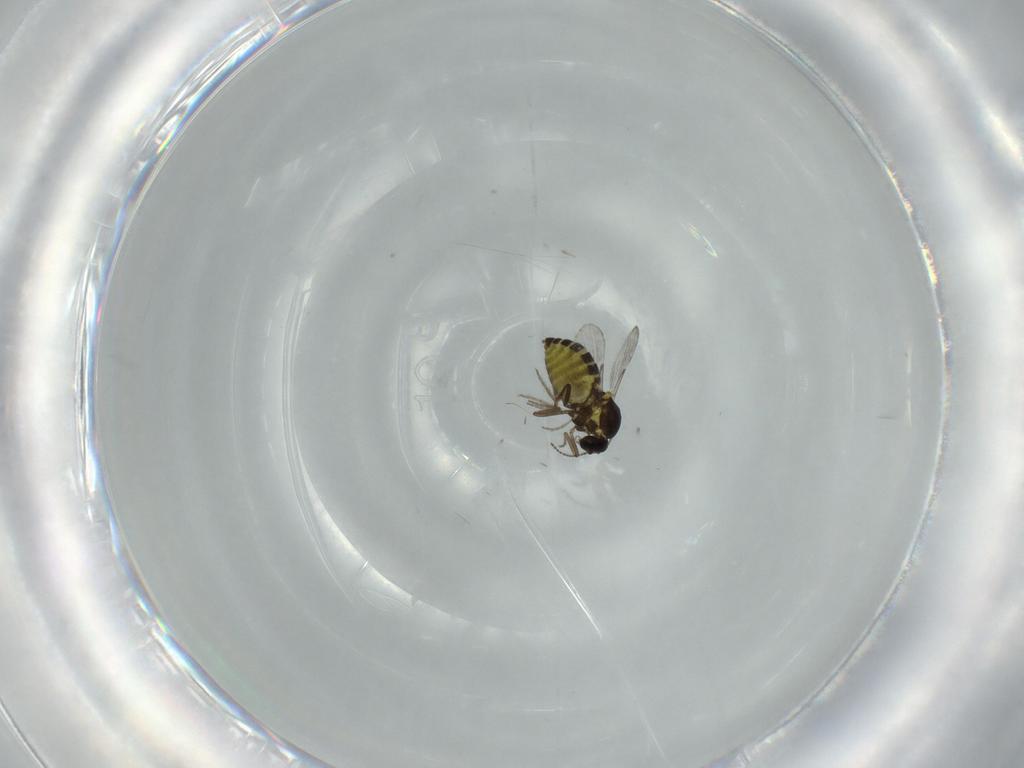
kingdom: Animalia
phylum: Arthropoda
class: Insecta
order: Diptera
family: Ceratopogonidae
